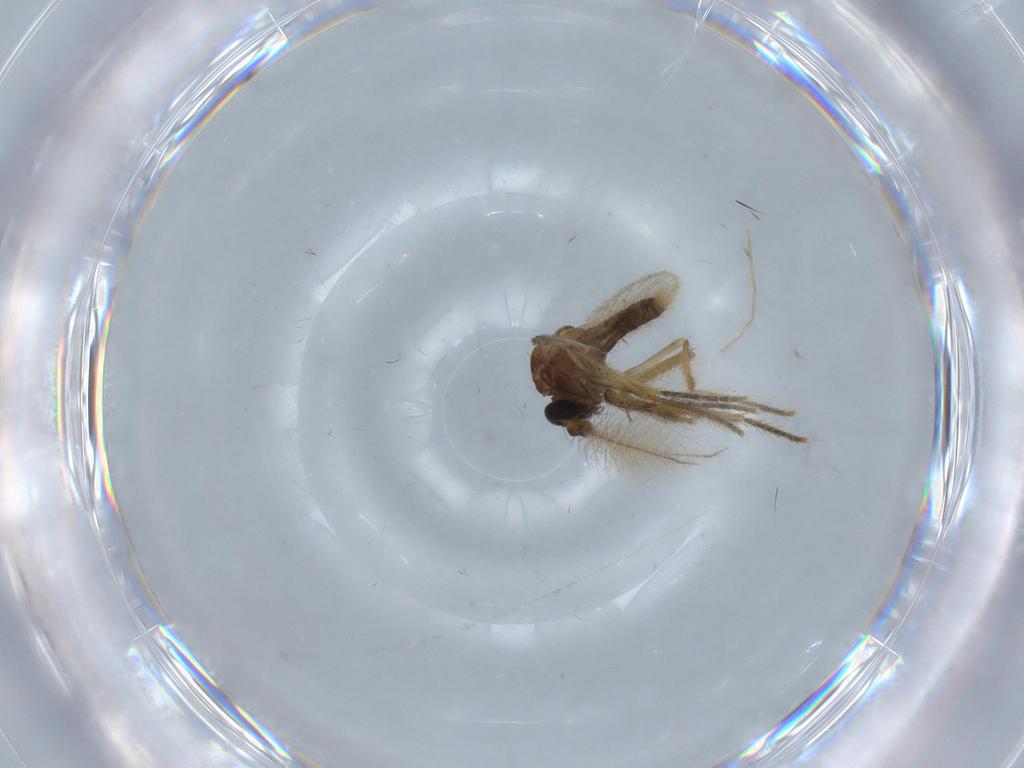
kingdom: Animalia
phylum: Arthropoda
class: Insecta
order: Diptera
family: Corethrellidae
